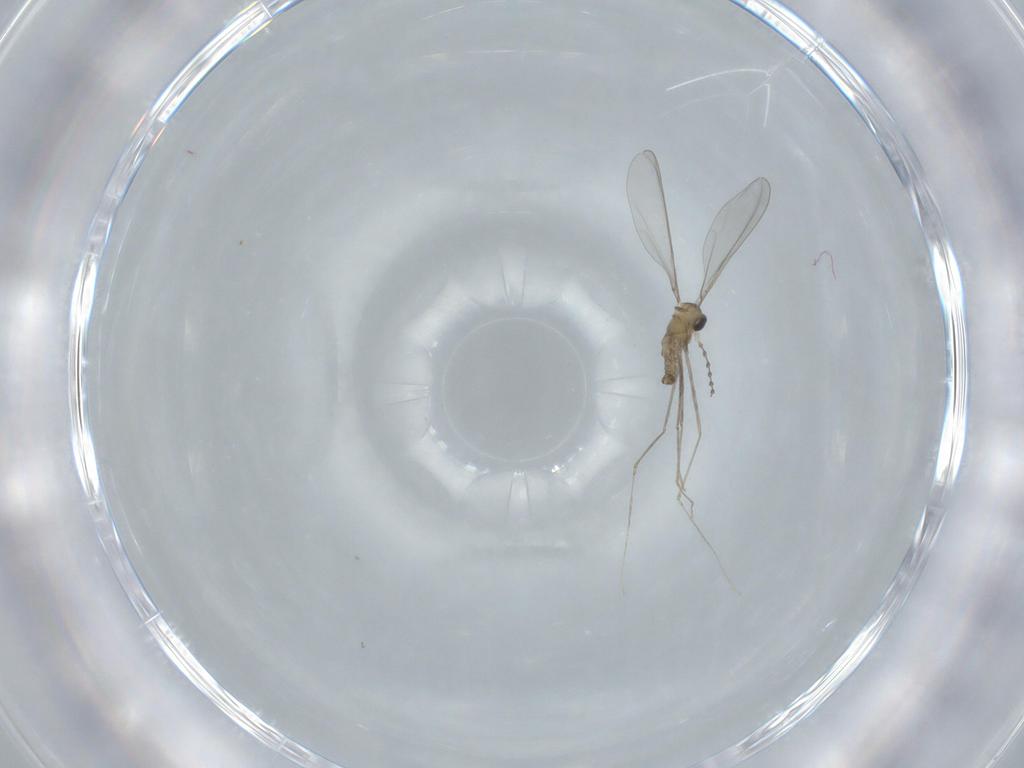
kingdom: Animalia
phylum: Arthropoda
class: Insecta
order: Diptera
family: Cecidomyiidae
